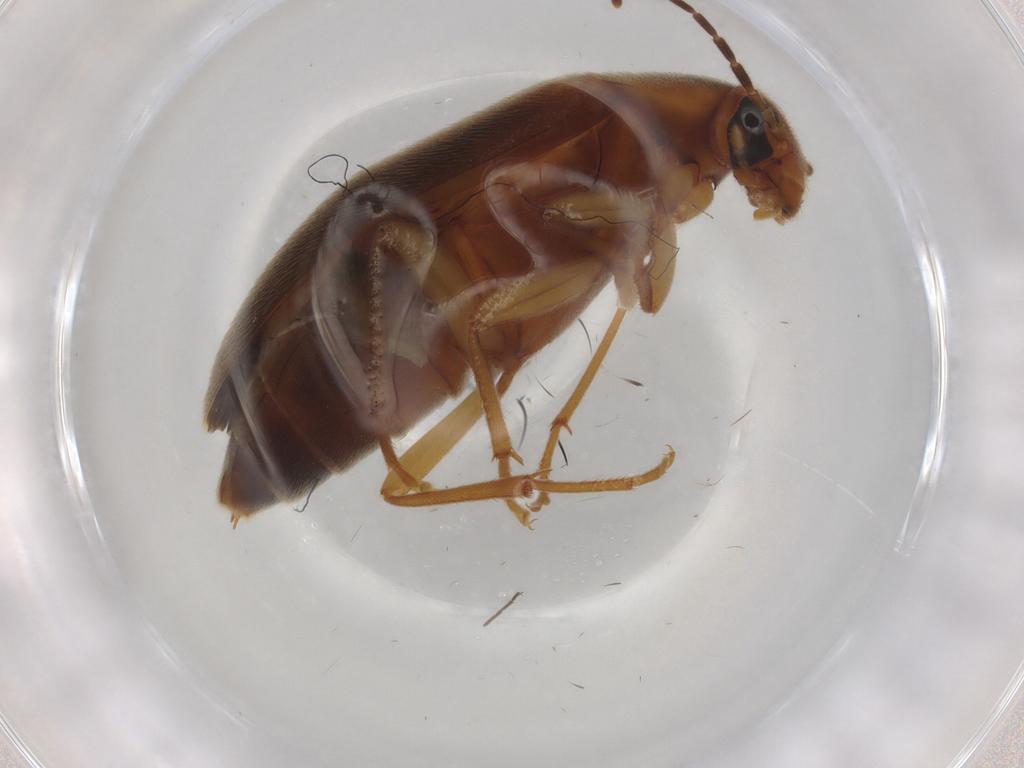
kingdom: Animalia
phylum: Arthropoda
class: Insecta
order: Coleoptera
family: Scraptiidae
